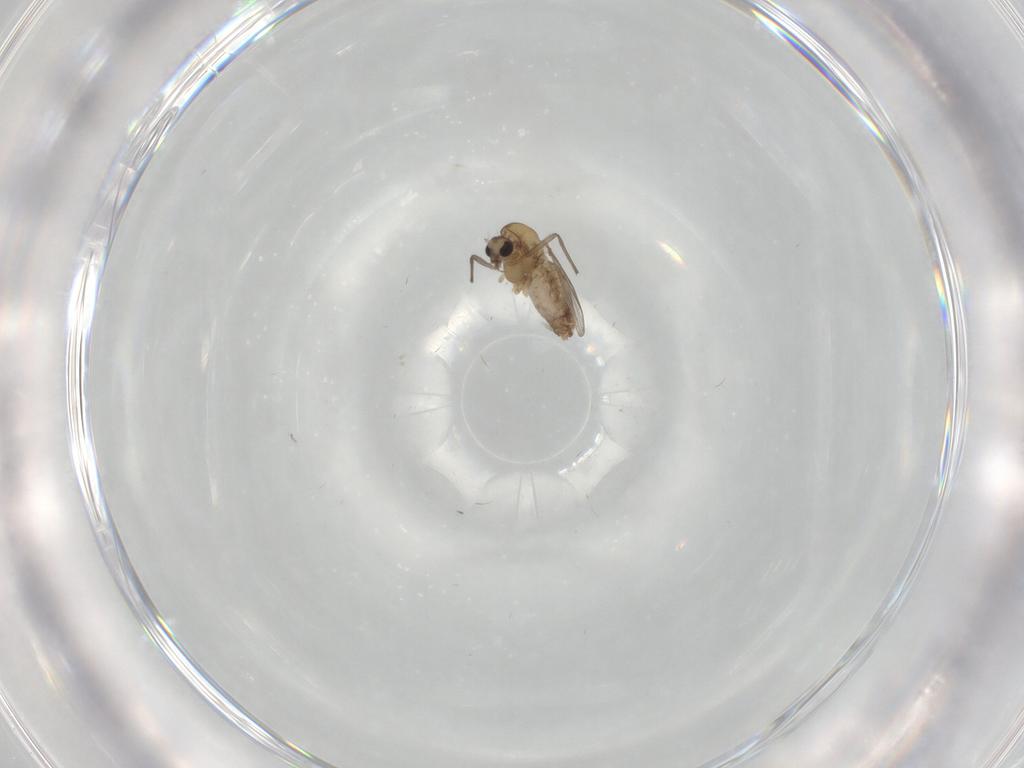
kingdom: Animalia
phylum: Arthropoda
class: Insecta
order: Diptera
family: Chironomidae
